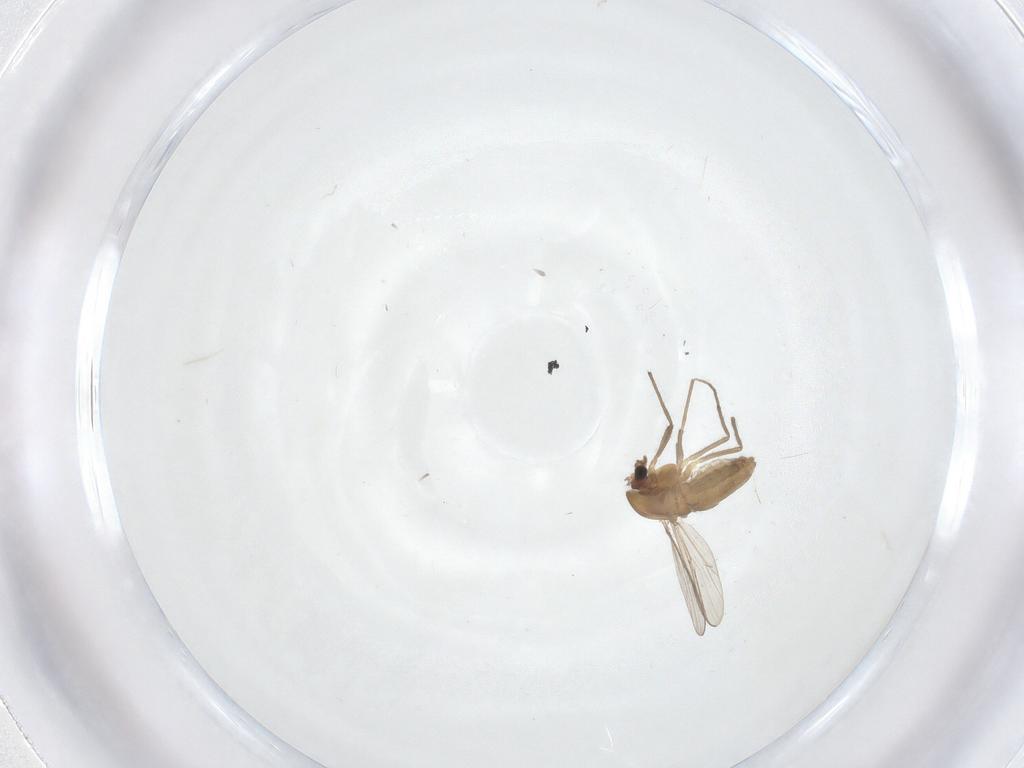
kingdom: Animalia
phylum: Arthropoda
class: Insecta
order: Diptera
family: Chironomidae
